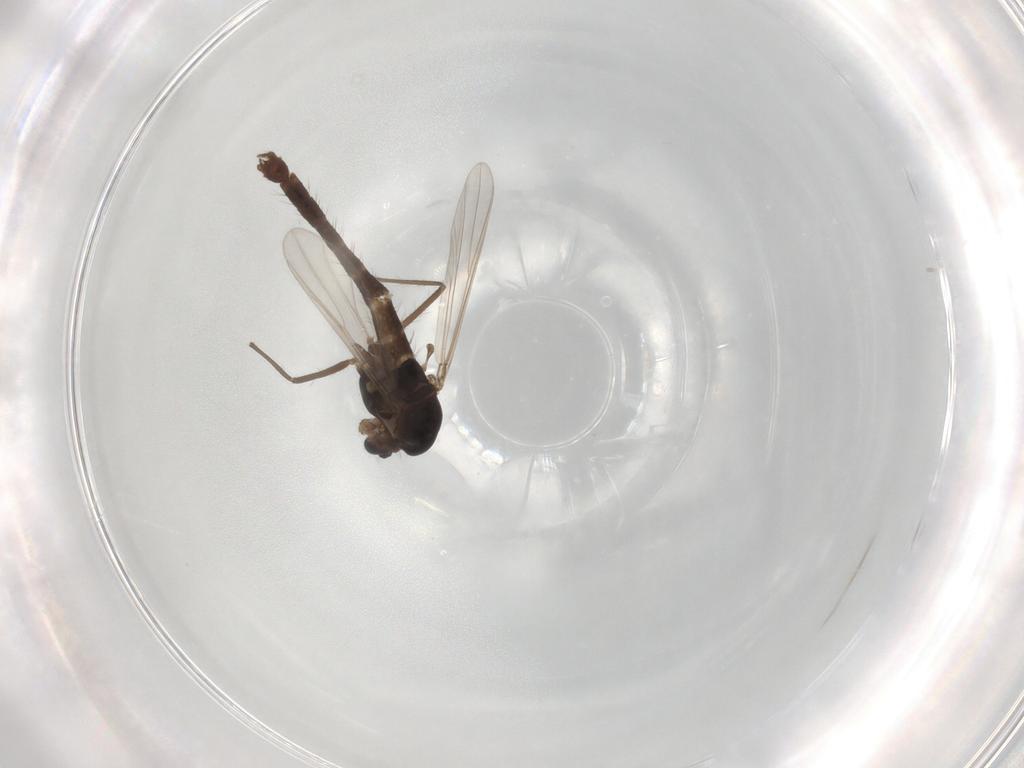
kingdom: Animalia
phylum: Arthropoda
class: Insecta
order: Diptera
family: Chironomidae
